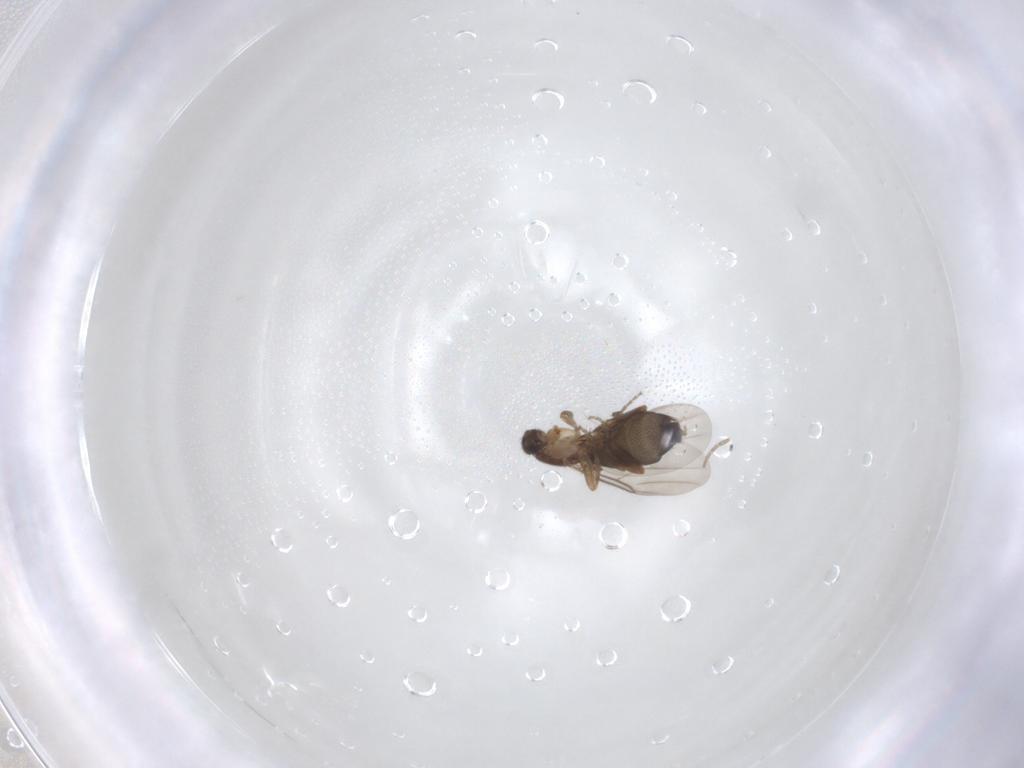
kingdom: Animalia
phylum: Arthropoda
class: Insecta
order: Diptera
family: Phoridae
